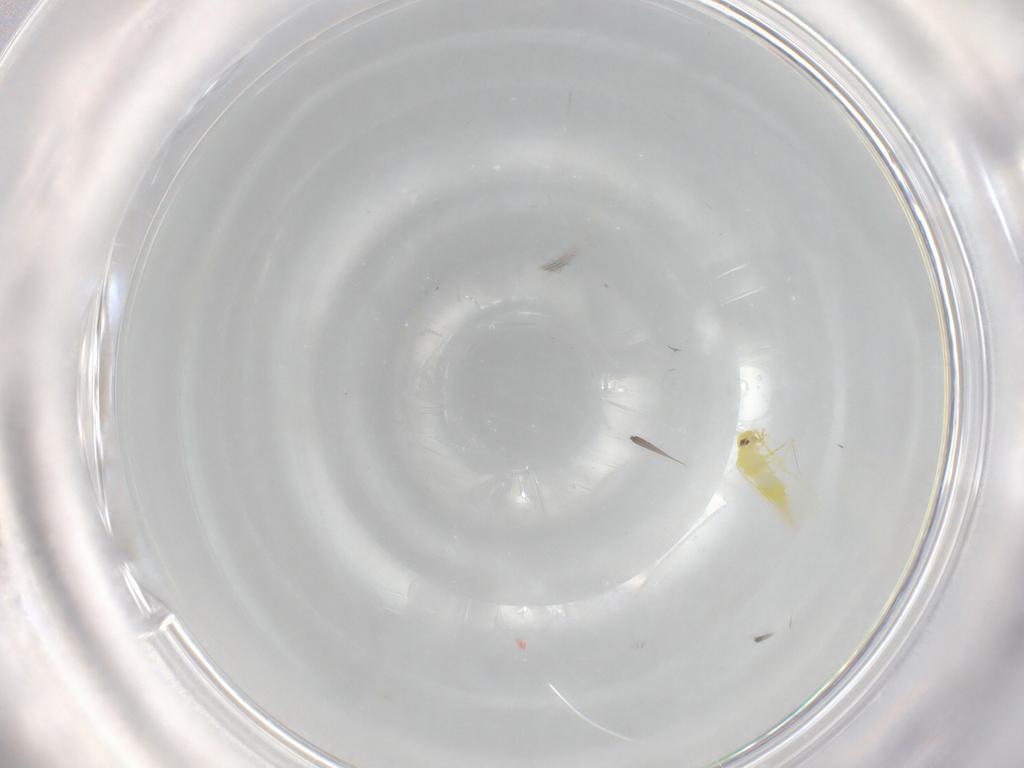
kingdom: Animalia
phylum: Arthropoda
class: Insecta
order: Hemiptera
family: Aleyrodidae
